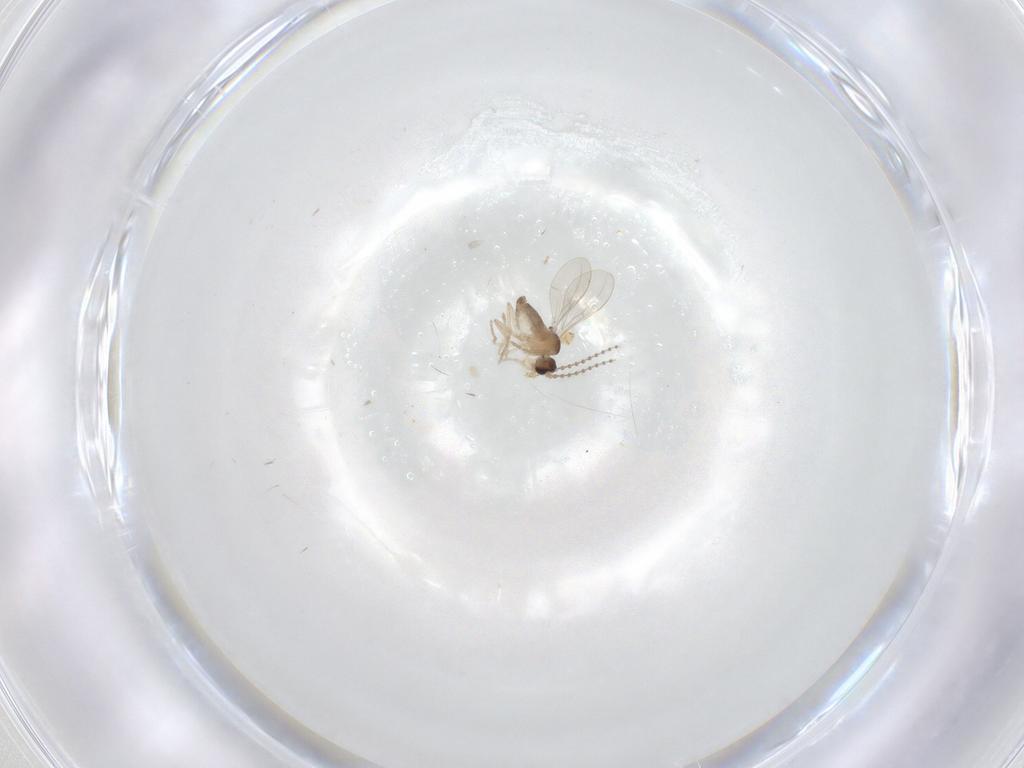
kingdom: Animalia
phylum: Arthropoda
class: Insecta
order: Diptera
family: Cecidomyiidae
